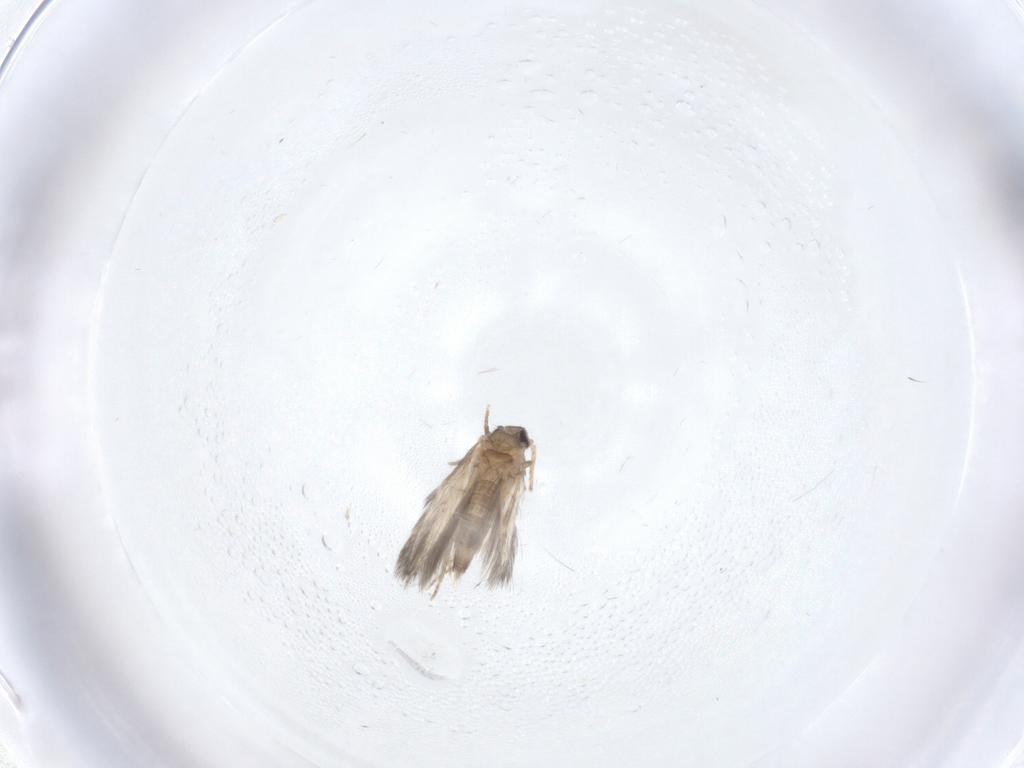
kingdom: Animalia
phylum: Arthropoda
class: Insecta
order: Trichoptera
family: Hydroptilidae
